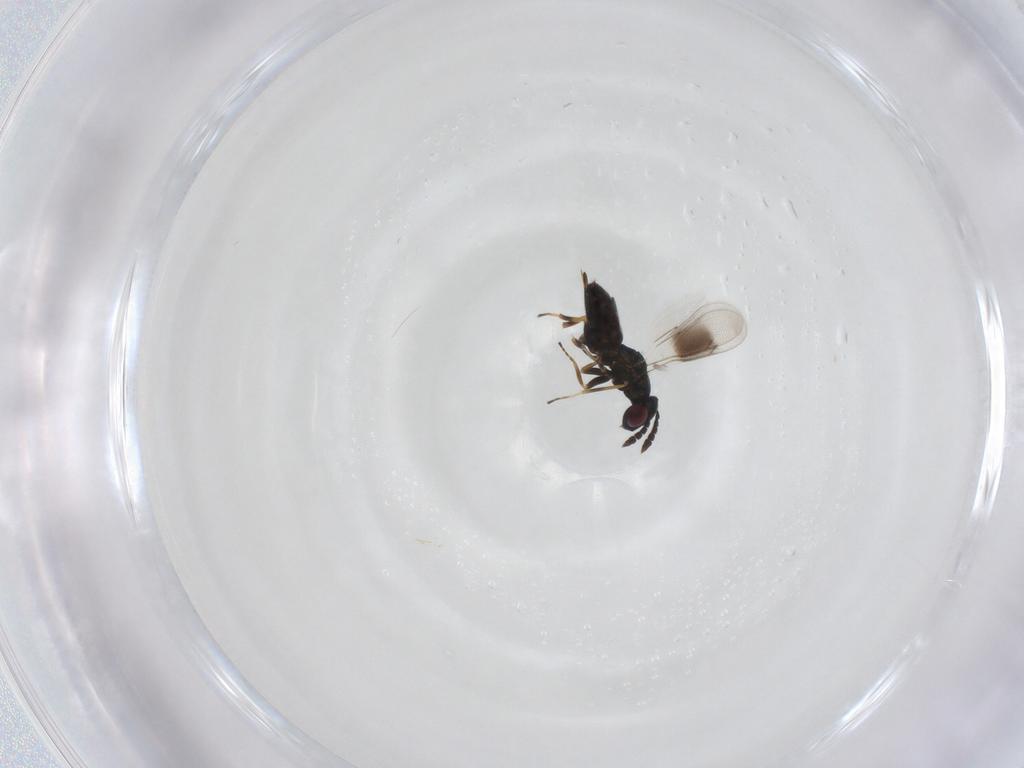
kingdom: Animalia
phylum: Arthropoda
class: Insecta
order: Hymenoptera
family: Eulophidae
